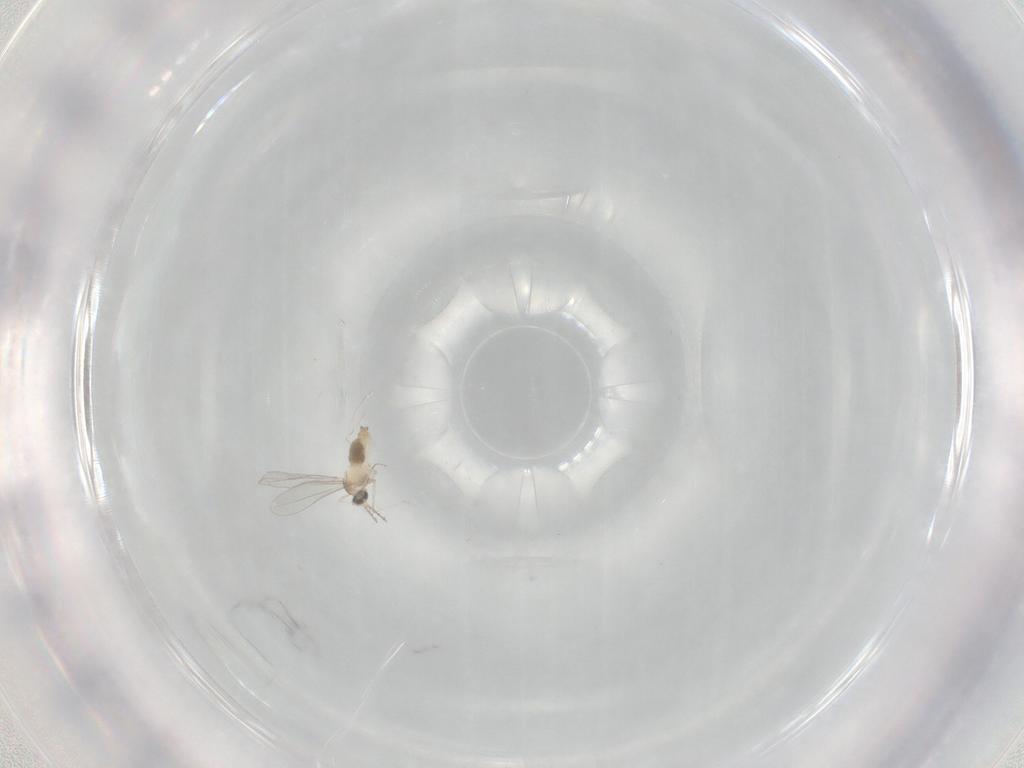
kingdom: Animalia
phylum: Arthropoda
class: Insecta
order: Diptera
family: Cecidomyiidae
